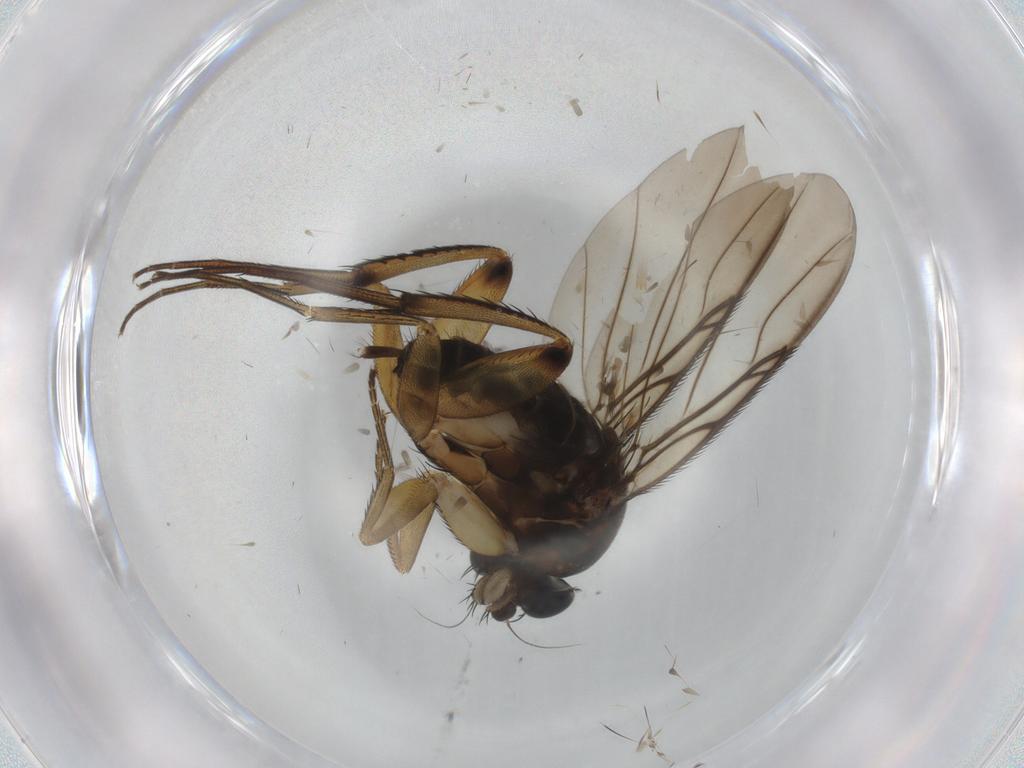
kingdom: Animalia
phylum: Arthropoda
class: Insecta
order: Diptera
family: Phoridae
